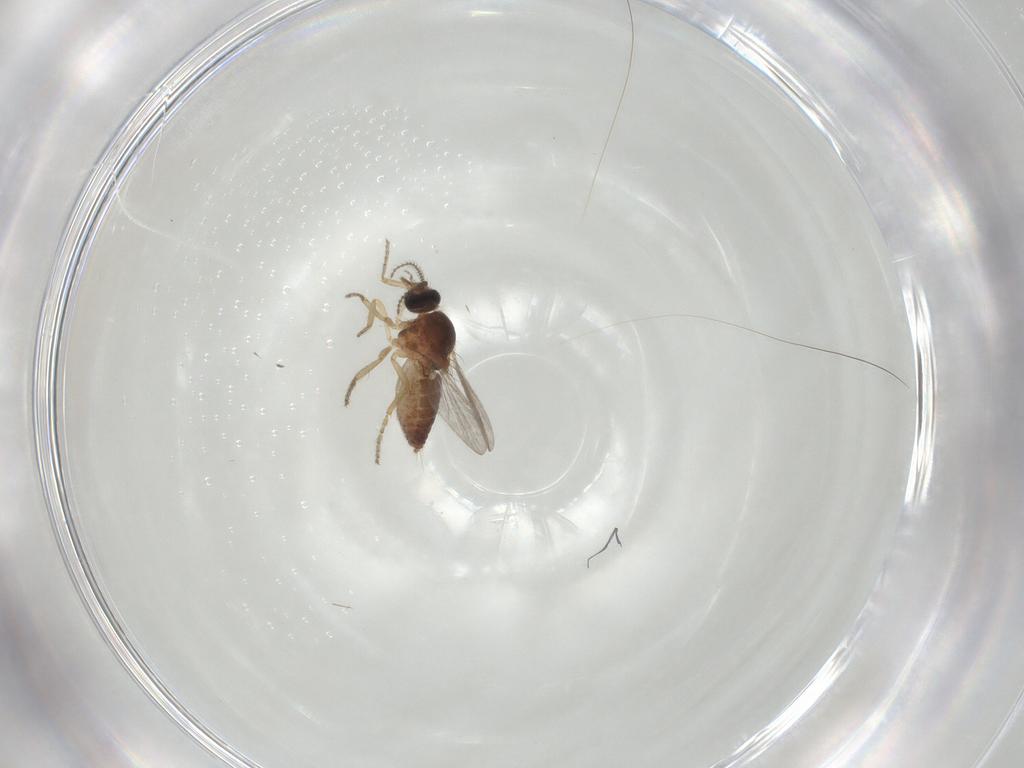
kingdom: Animalia
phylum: Arthropoda
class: Insecta
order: Diptera
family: Ceratopogonidae
